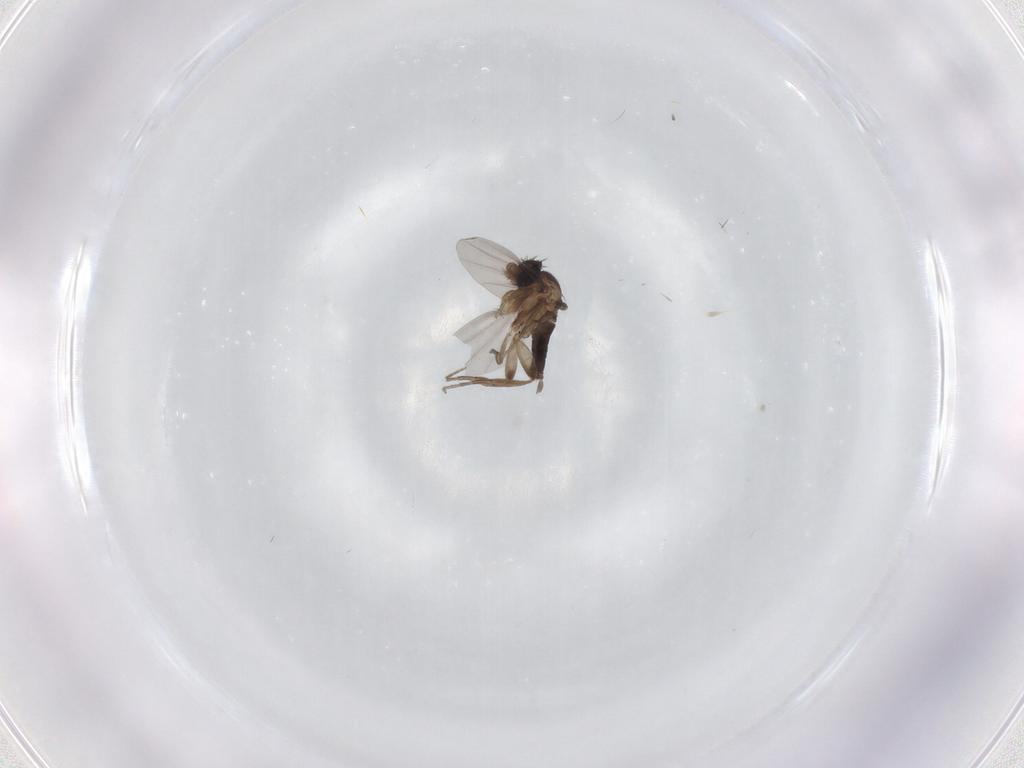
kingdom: Animalia
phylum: Arthropoda
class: Insecta
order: Diptera
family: Phoridae
